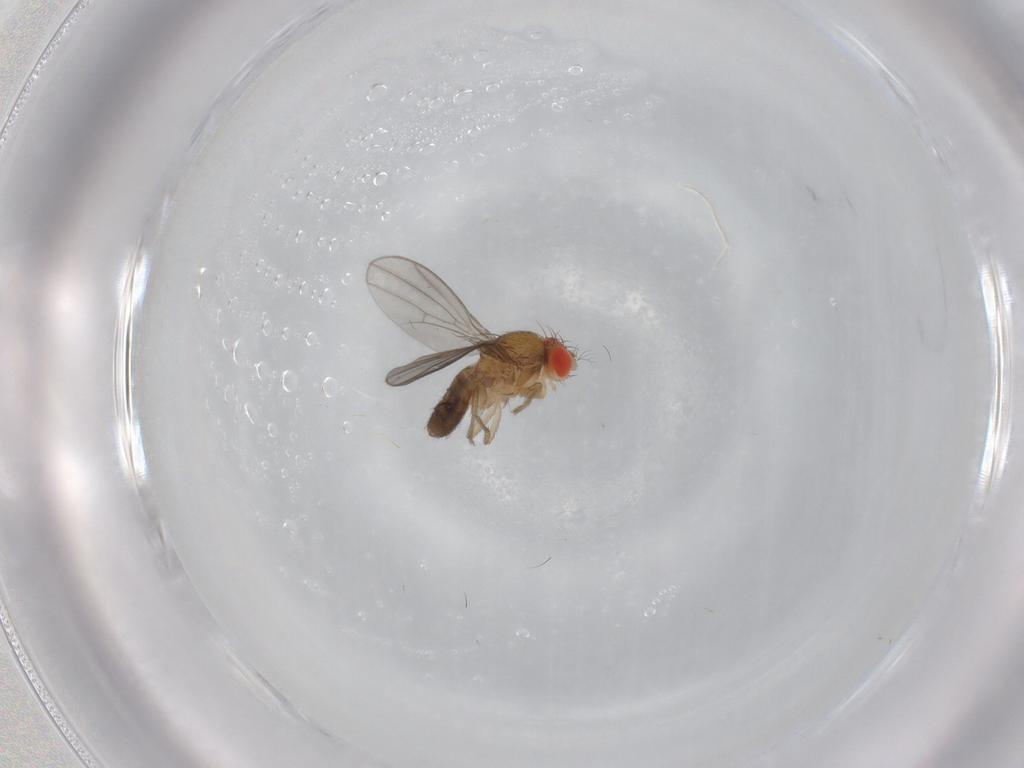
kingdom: Animalia
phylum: Arthropoda
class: Insecta
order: Diptera
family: Drosophilidae
